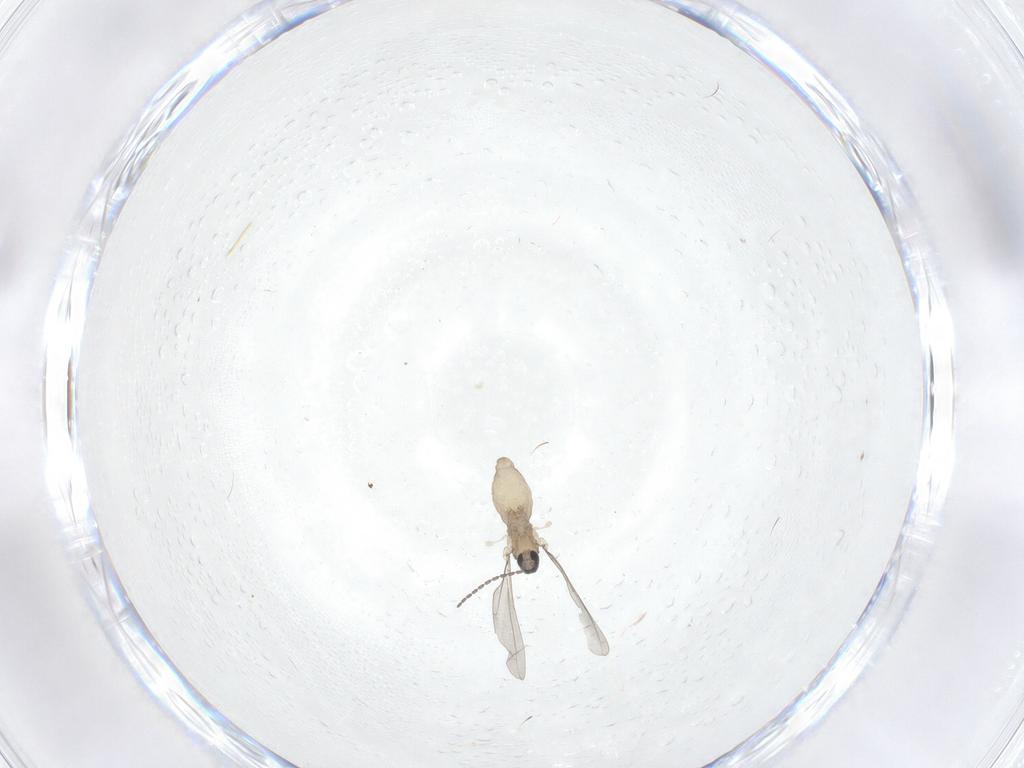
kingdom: Animalia
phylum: Arthropoda
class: Insecta
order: Diptera
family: Cecidomyiidae
